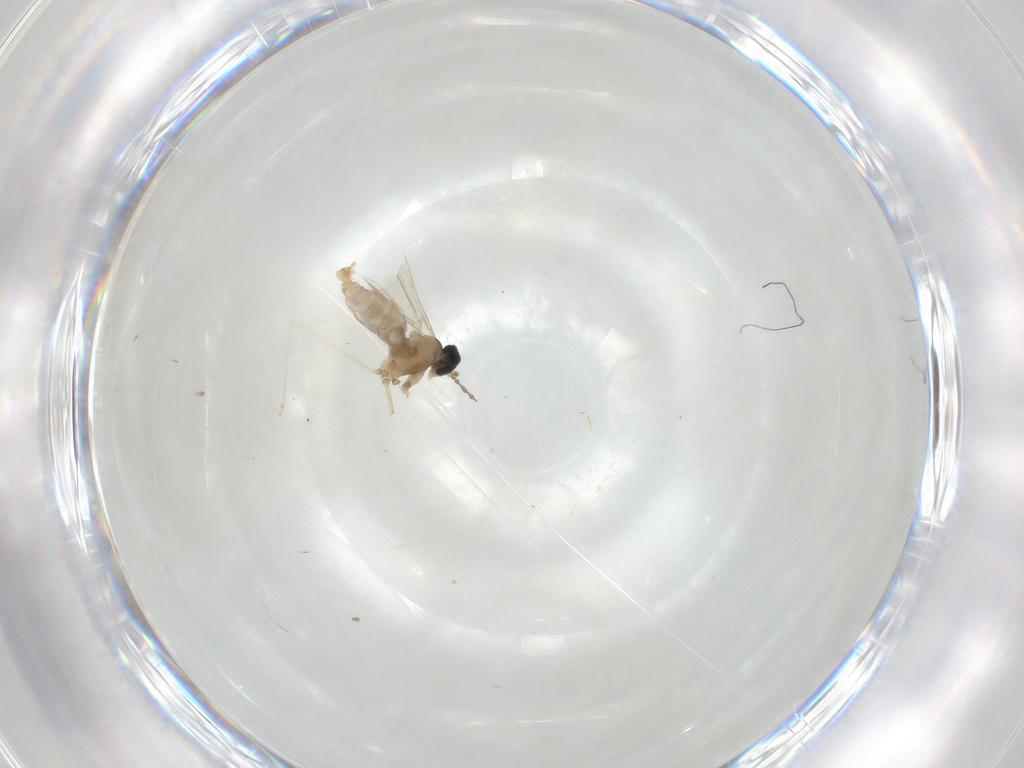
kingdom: Animalia
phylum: Arthropoda
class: Insecta
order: Diptera
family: Cecidomyiidae
